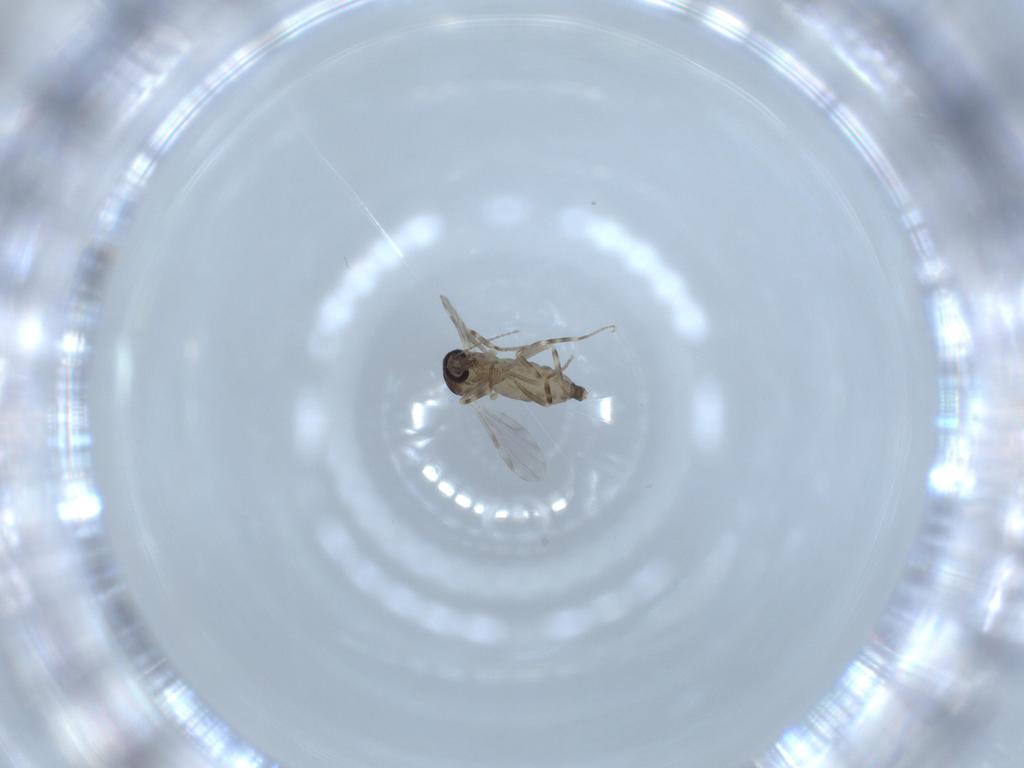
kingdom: Animalia
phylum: Arthropoda
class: Insecta
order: Diptera
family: Ceratopogonidae
